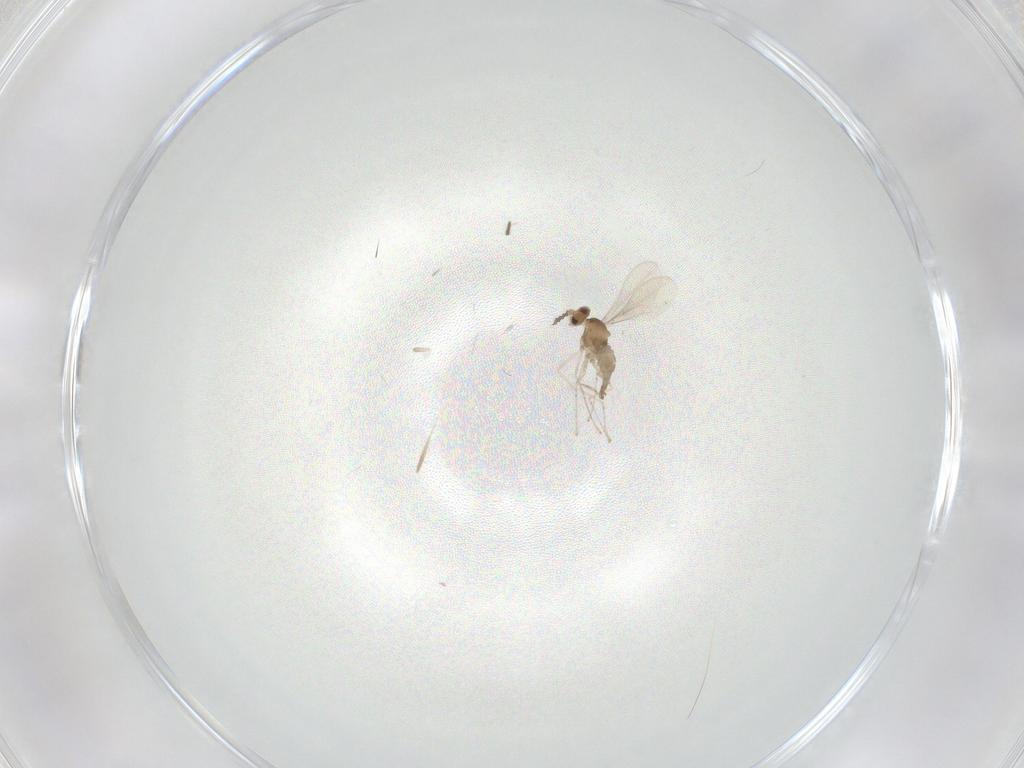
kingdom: Animalia
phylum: Arthropoda
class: Insecta
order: Diptera
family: Cecidomyiidae
